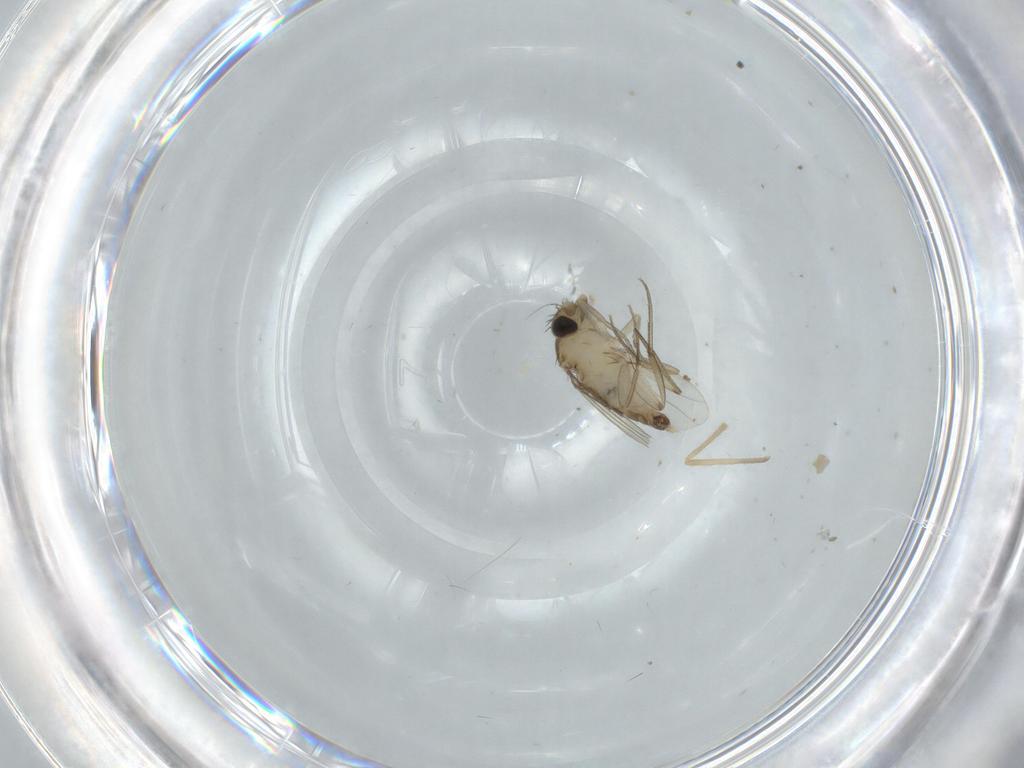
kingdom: Animalia
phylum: Arthropoda
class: Insecta
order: Diptera
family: Phoridae
